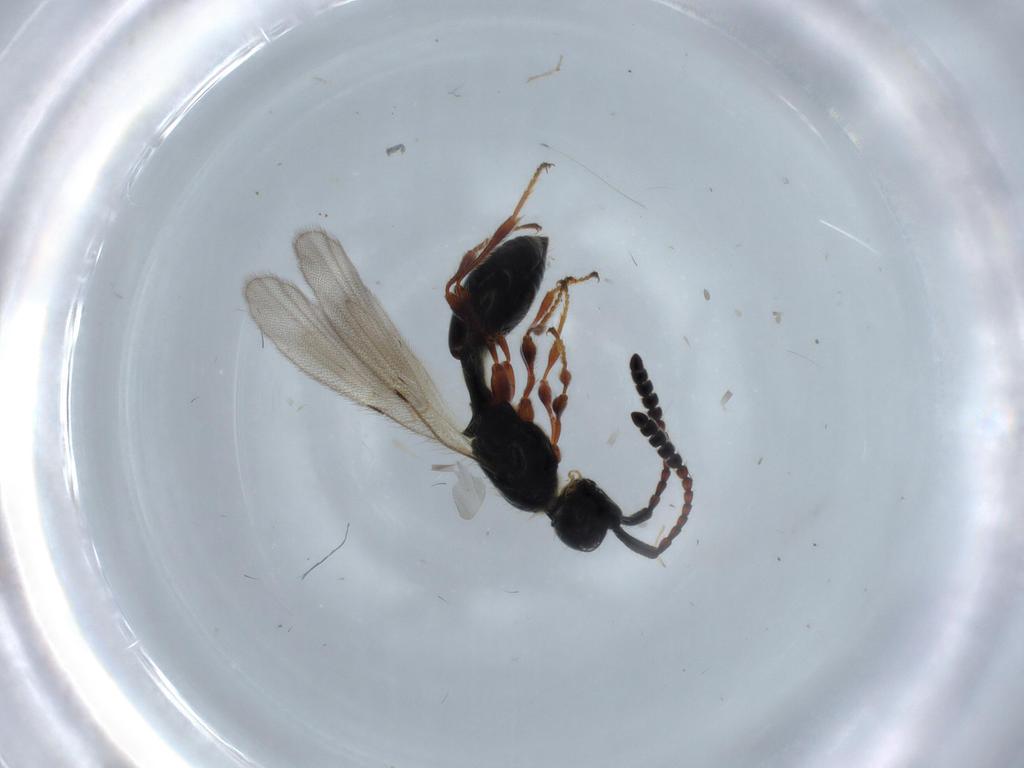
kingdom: Animalia
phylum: Arthropoda
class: Insecta
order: Hymenoptera
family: Diapriidae
